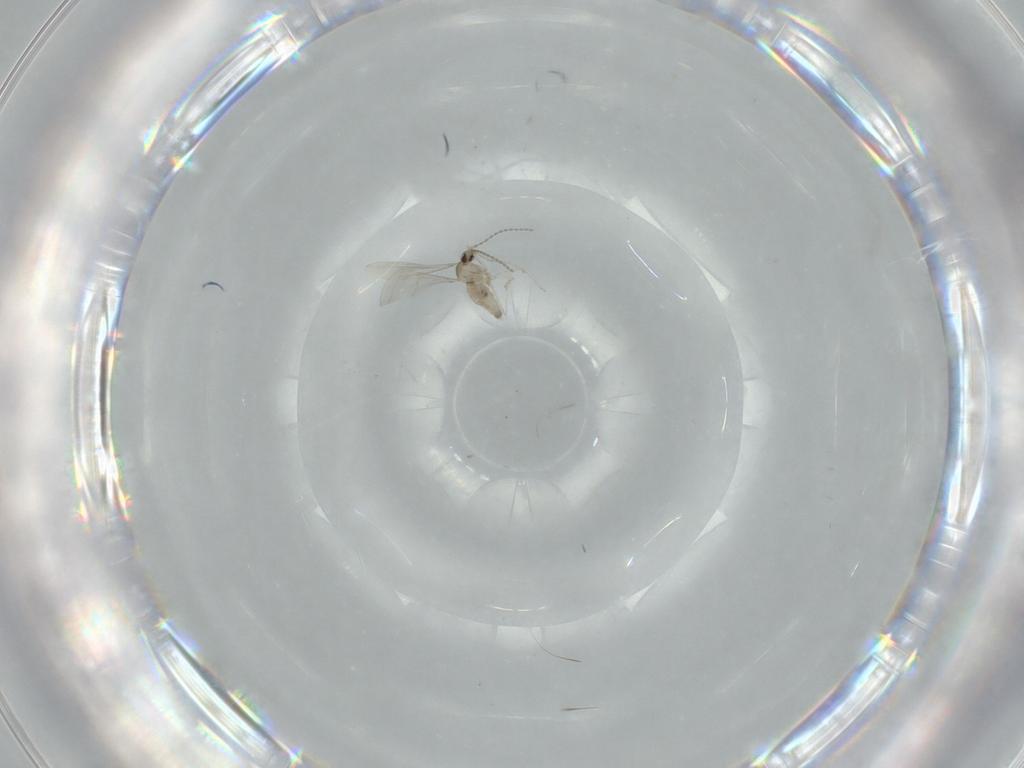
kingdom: Animalia
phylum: Arthropoda
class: Insecta
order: Diptera
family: Cecidomyiidae
